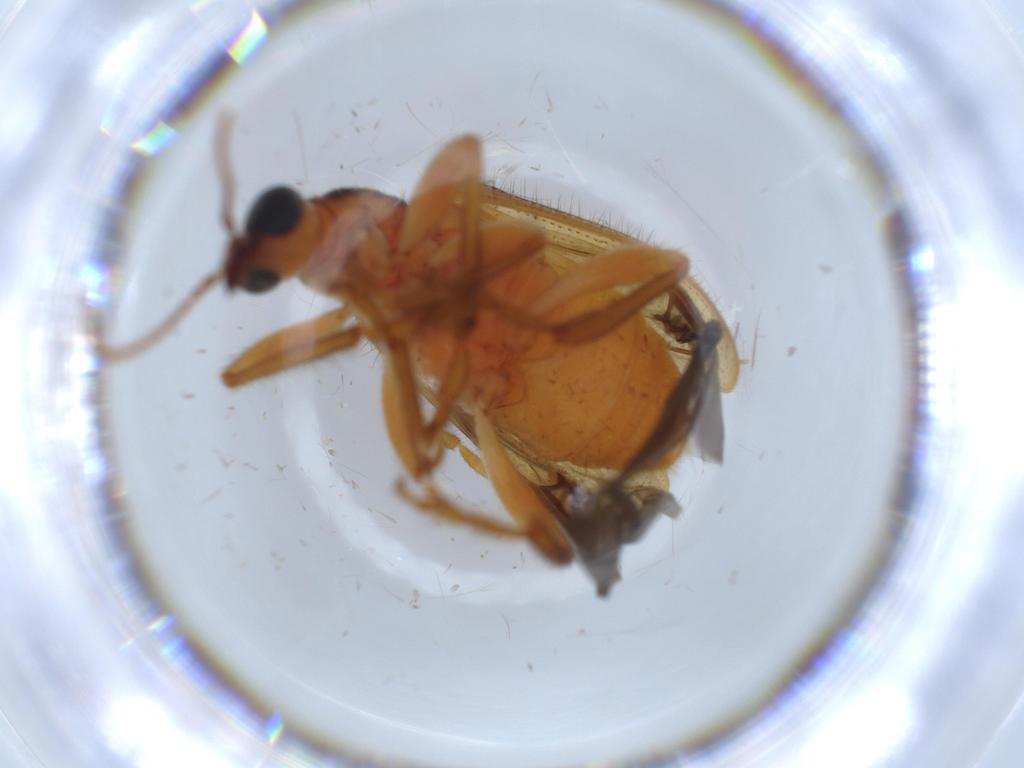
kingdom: Animalia
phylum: Arthropoda
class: Insecta
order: Coleoptera
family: Attelabidae
